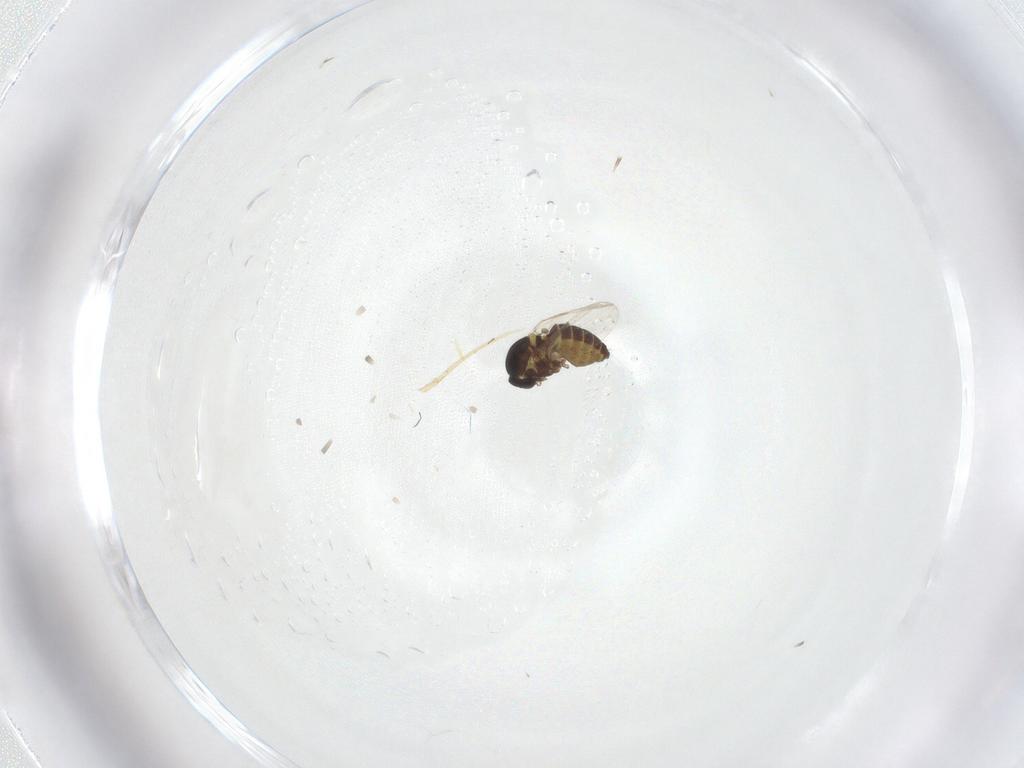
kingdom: Animalia
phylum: Arthropoda
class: Insecta
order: Diptera
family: Ceratopogonidae
